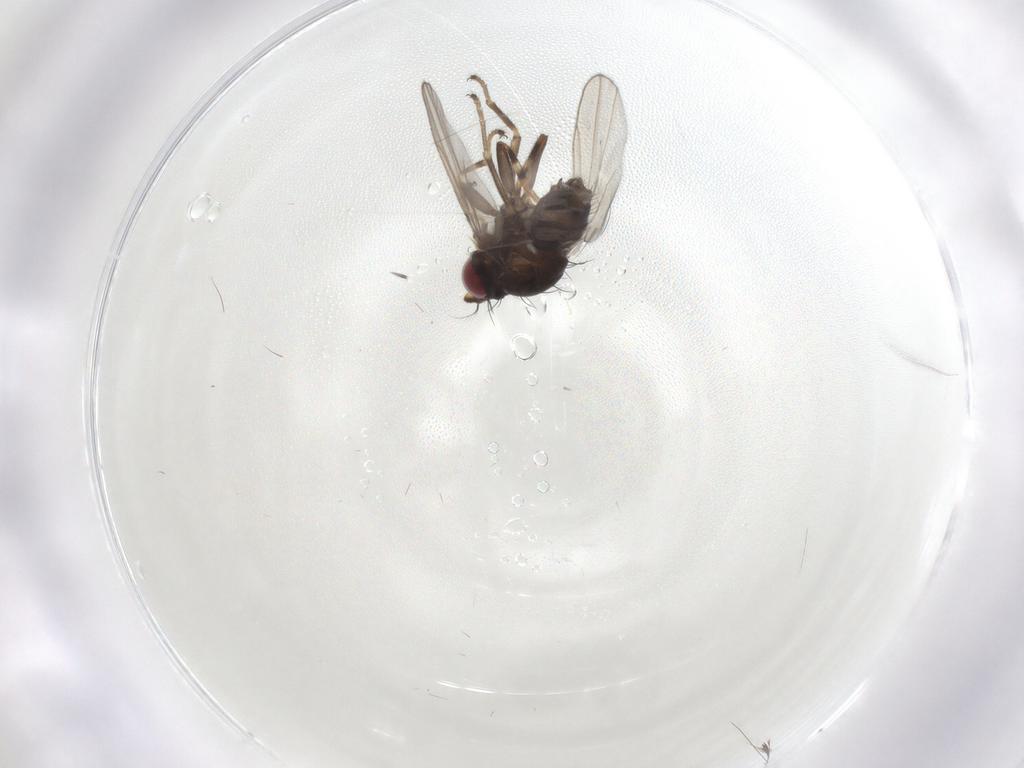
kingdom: Animalia
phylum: Arthropoda
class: Insecta
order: Diptera
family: Ephydridae
